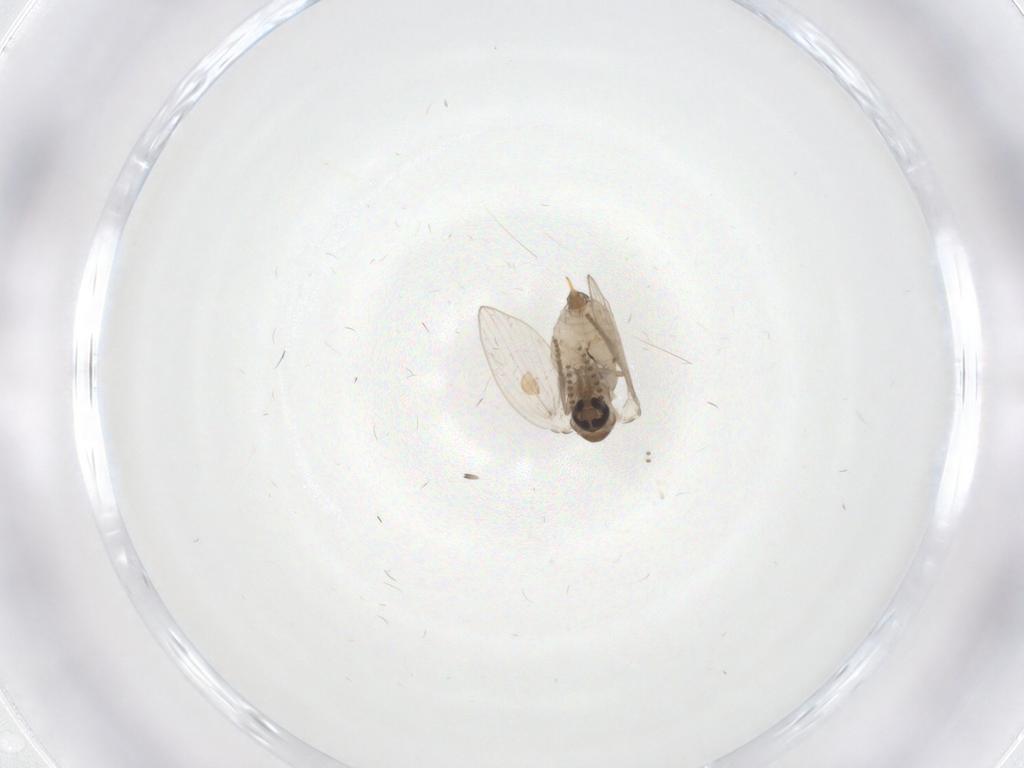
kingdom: Animalia
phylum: Arthropoda
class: Insecta
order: Diptera
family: Psychodidae
